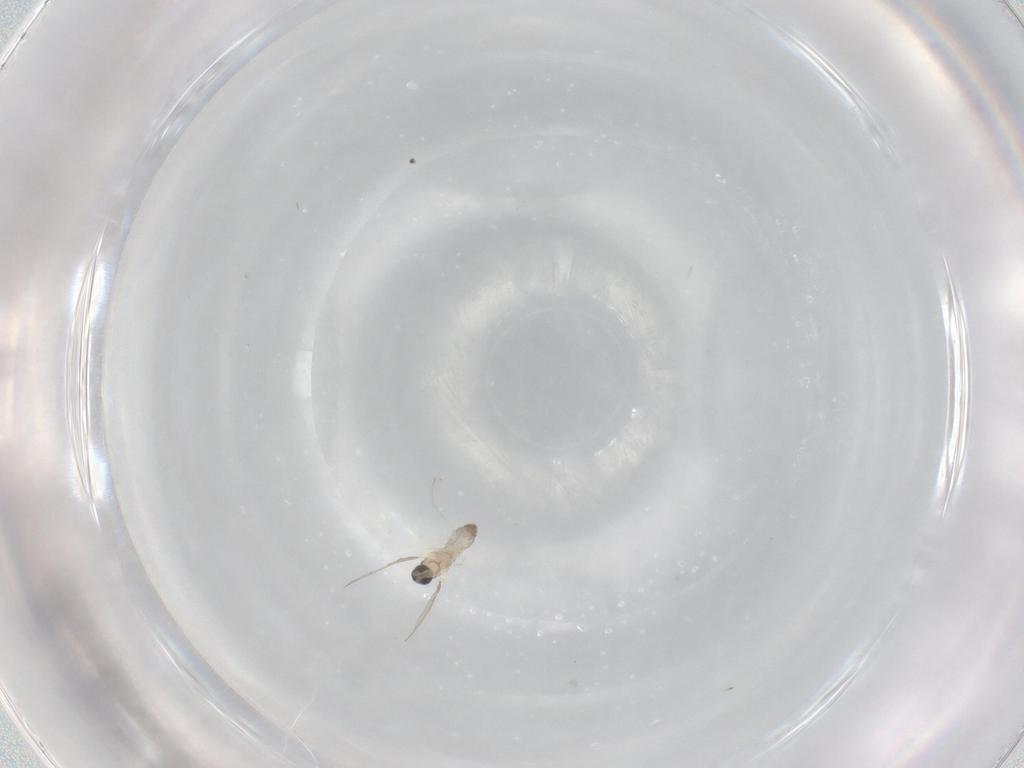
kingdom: Animalia
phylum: Arthropoda
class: Insecta
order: Diptera
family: Cecidomyiidae
